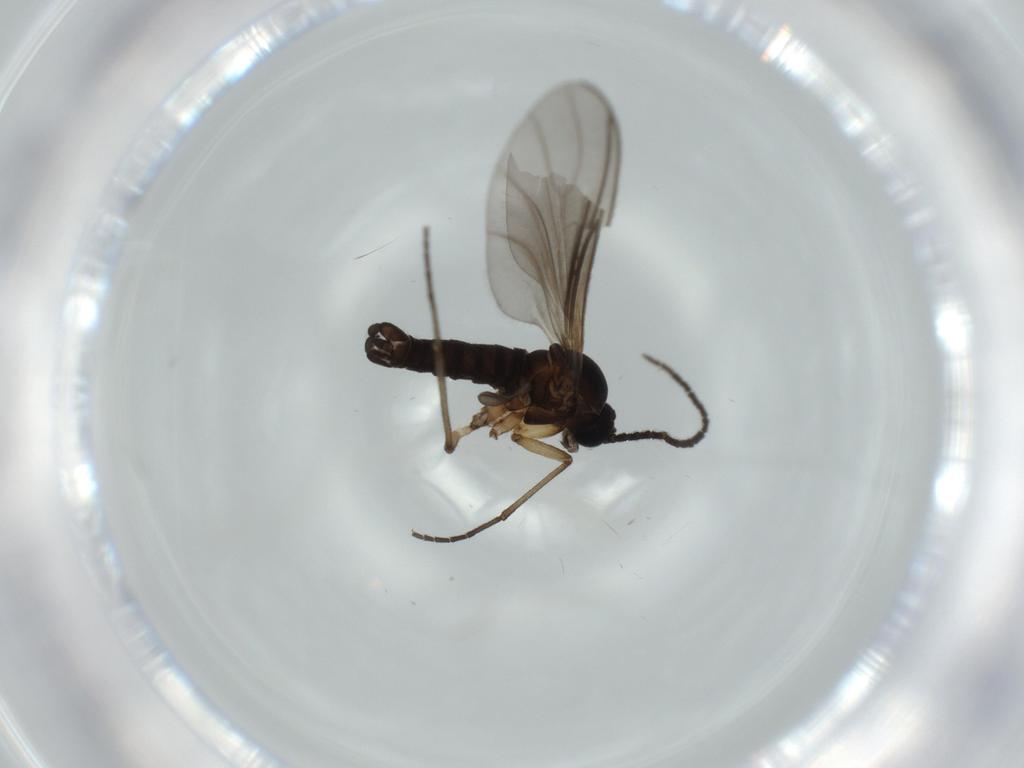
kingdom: Animalia
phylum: Arthropoda
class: Insecta
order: Diptera
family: Sciaridae
